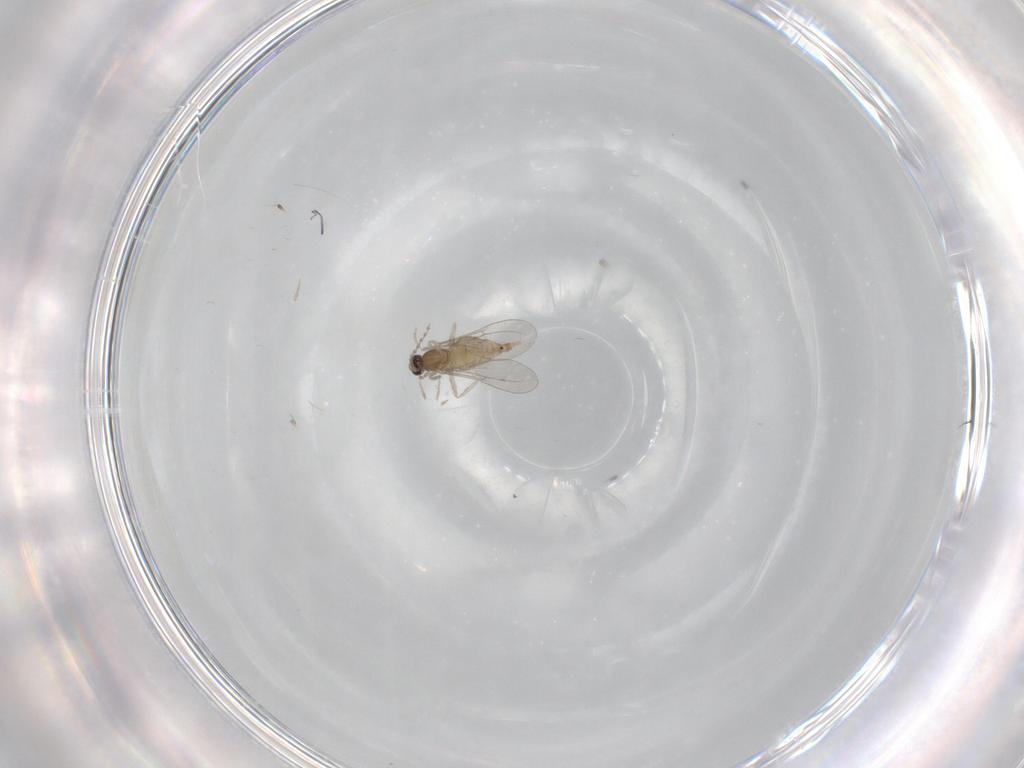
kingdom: Animalia
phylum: Arthropoda
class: Insecta
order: Diptera
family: Cecidomyiidae
